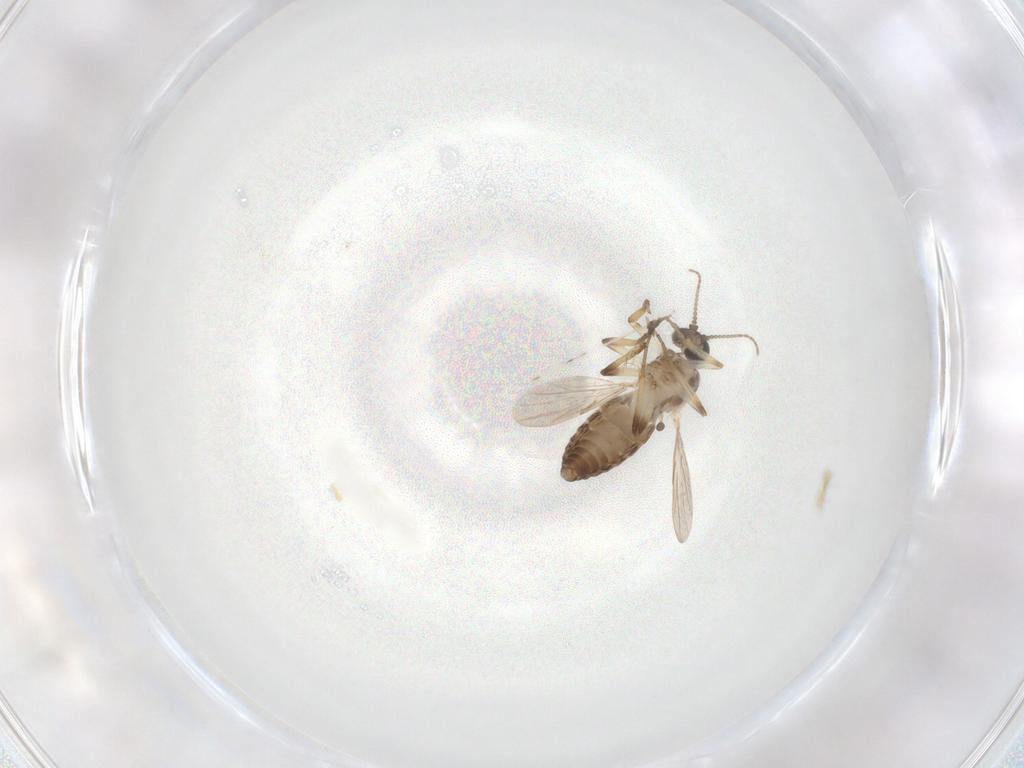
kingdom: Animalia
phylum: Arthropoda
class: Insecta
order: Diptera
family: Ceratopogonidae
